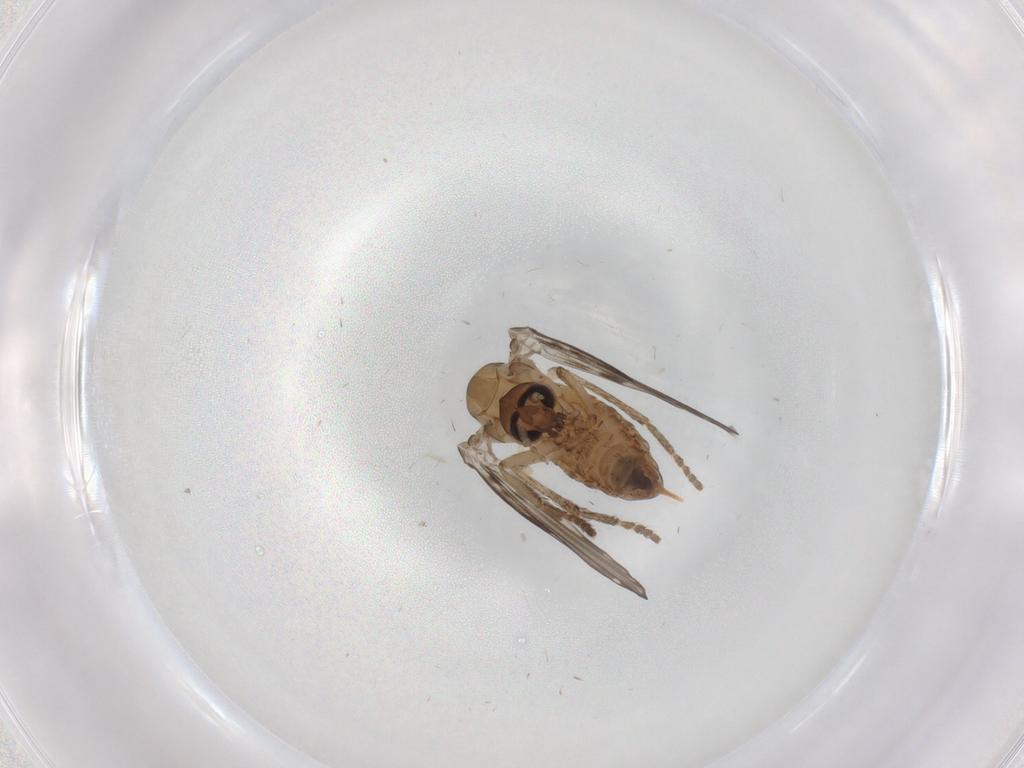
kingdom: Animalia
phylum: Arthropoda
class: Insecta
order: Diptera
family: Psychodidae
